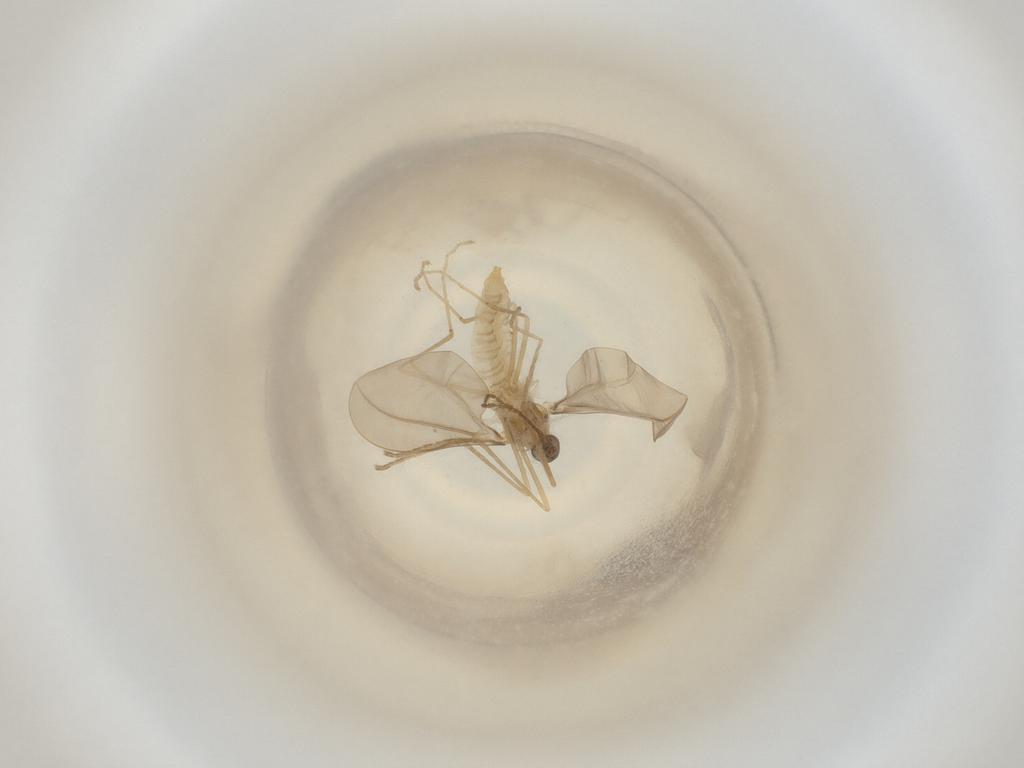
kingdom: Animalia
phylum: Arthropoda
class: Insecta
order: Diptera
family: Cecidomyiidae
